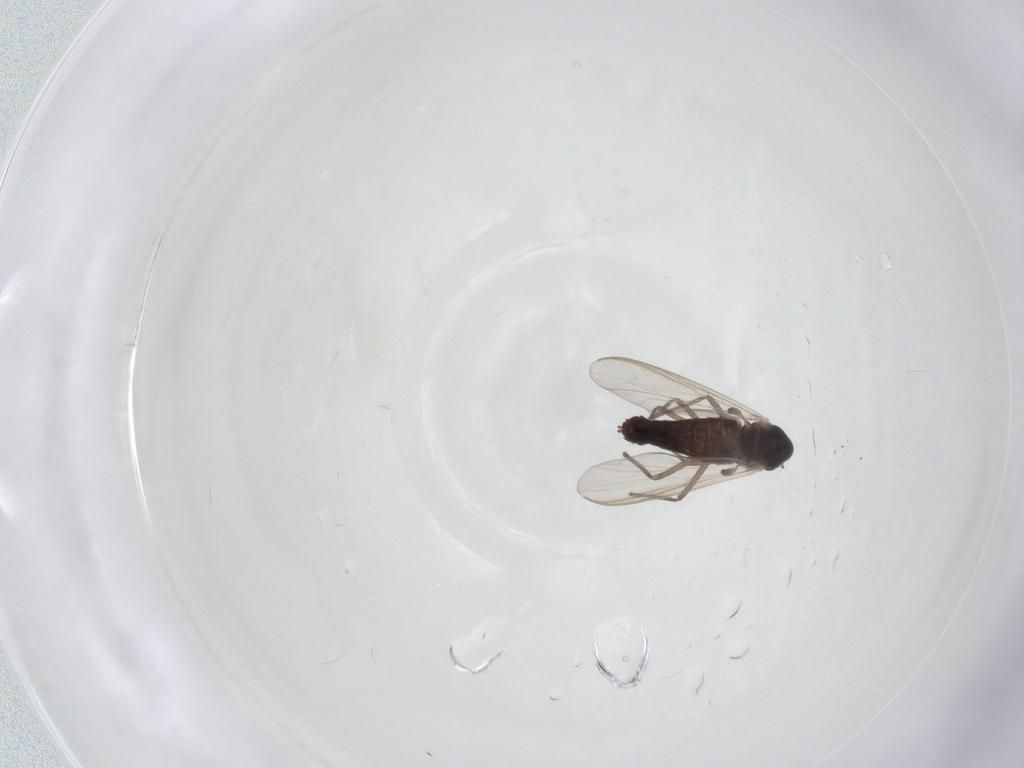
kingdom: Animalia
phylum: Arthropoda
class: Insecta
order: Diptera
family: Chironomidae
